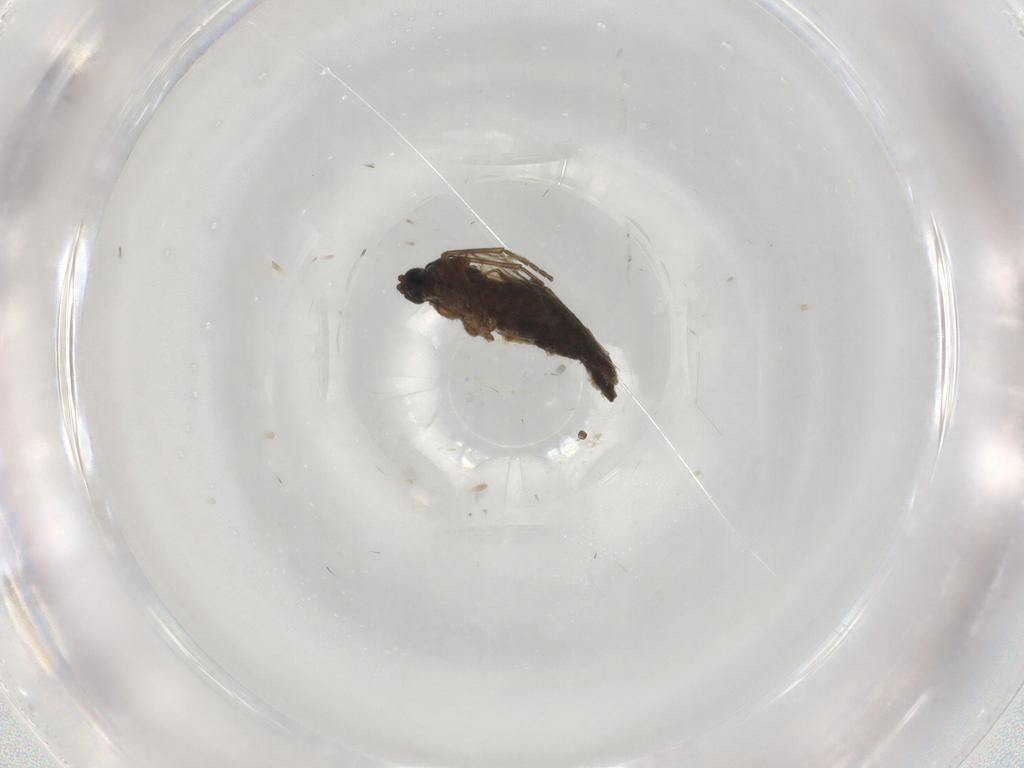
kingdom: Animalia
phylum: Arthropoda
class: Insecta
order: Diptera
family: Sciaridae
